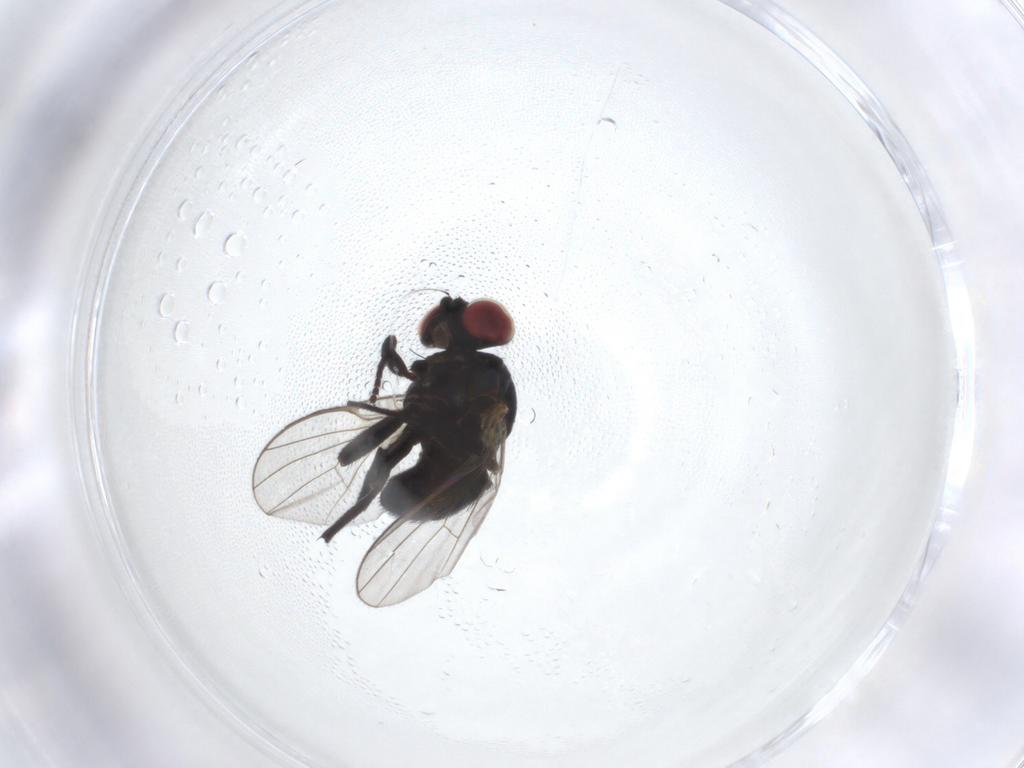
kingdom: Animalia
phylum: Arthropoda
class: Insecta
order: Diptera
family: Agromyzidae
